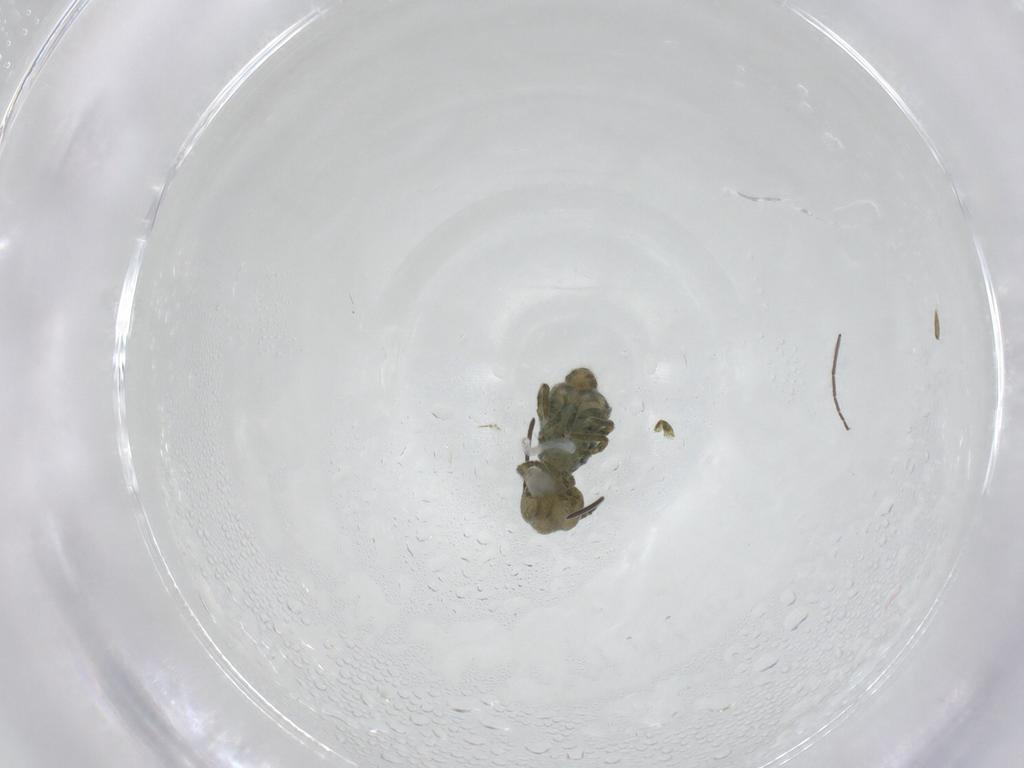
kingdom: Animalia
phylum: Arthropoda
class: Collembola
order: Symphypleona
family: Sminthuridae
